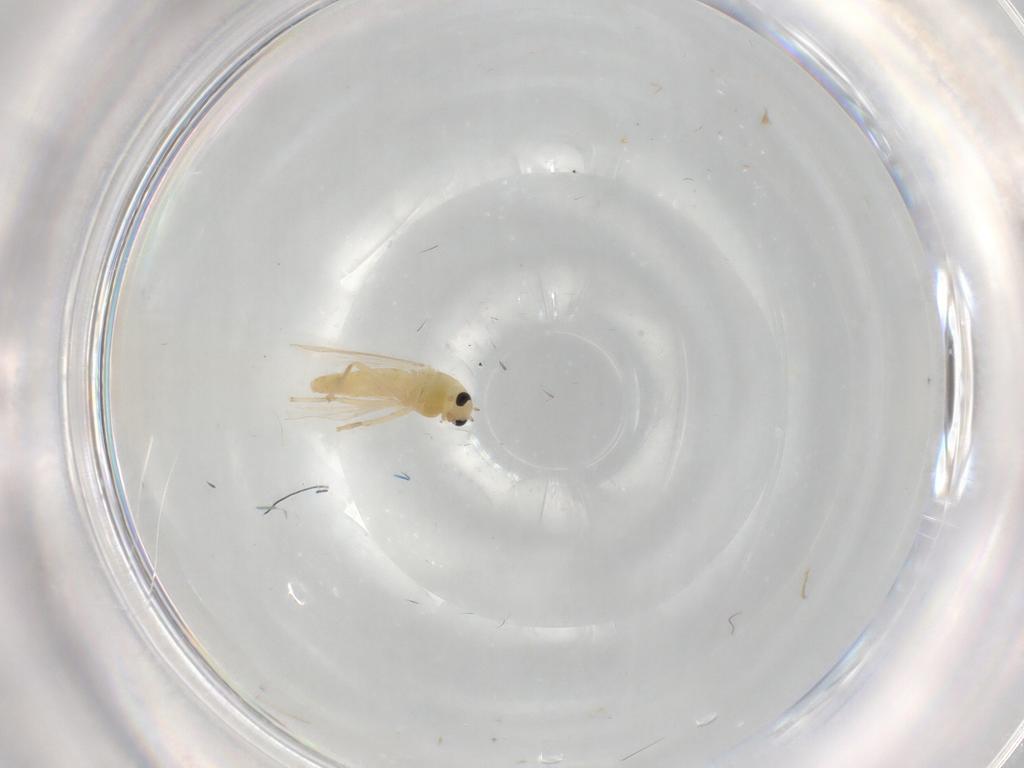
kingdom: Animalia
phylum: Arthropoda
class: Insecta
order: Diptera
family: Chironomidae
